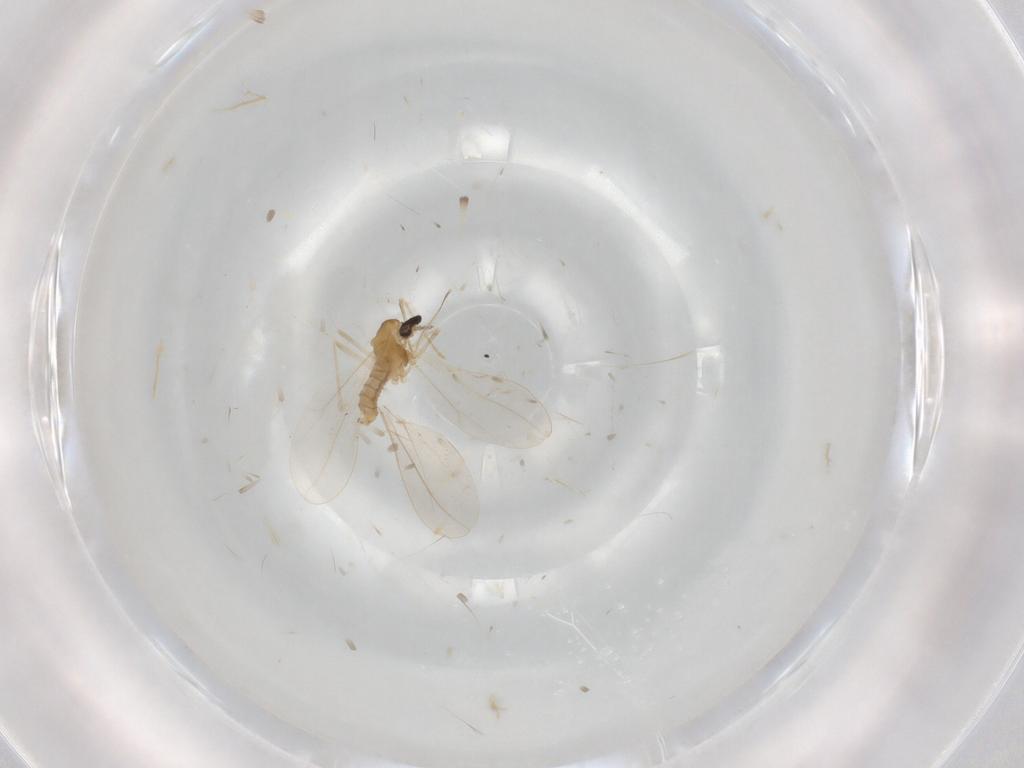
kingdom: Animalia
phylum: Arthropoda
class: Insecta
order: Diptera
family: Cecidomyiidae
